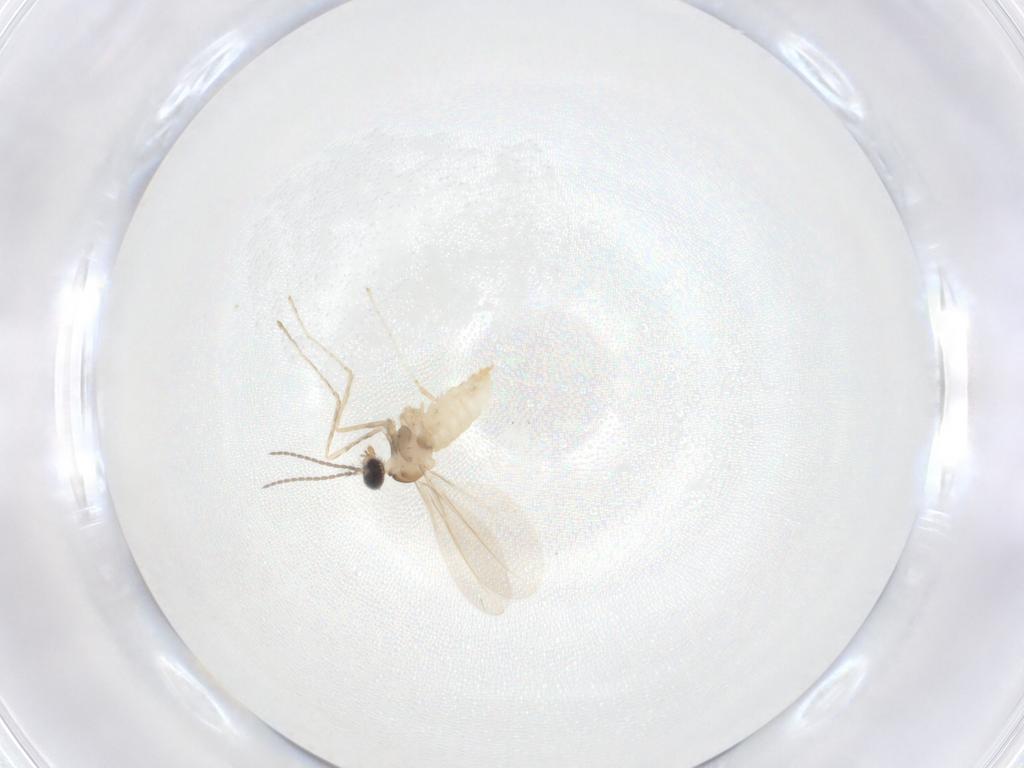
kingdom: Animalia
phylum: Arthropoda
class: Insecta
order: Diptera
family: Cecidomyiidae
